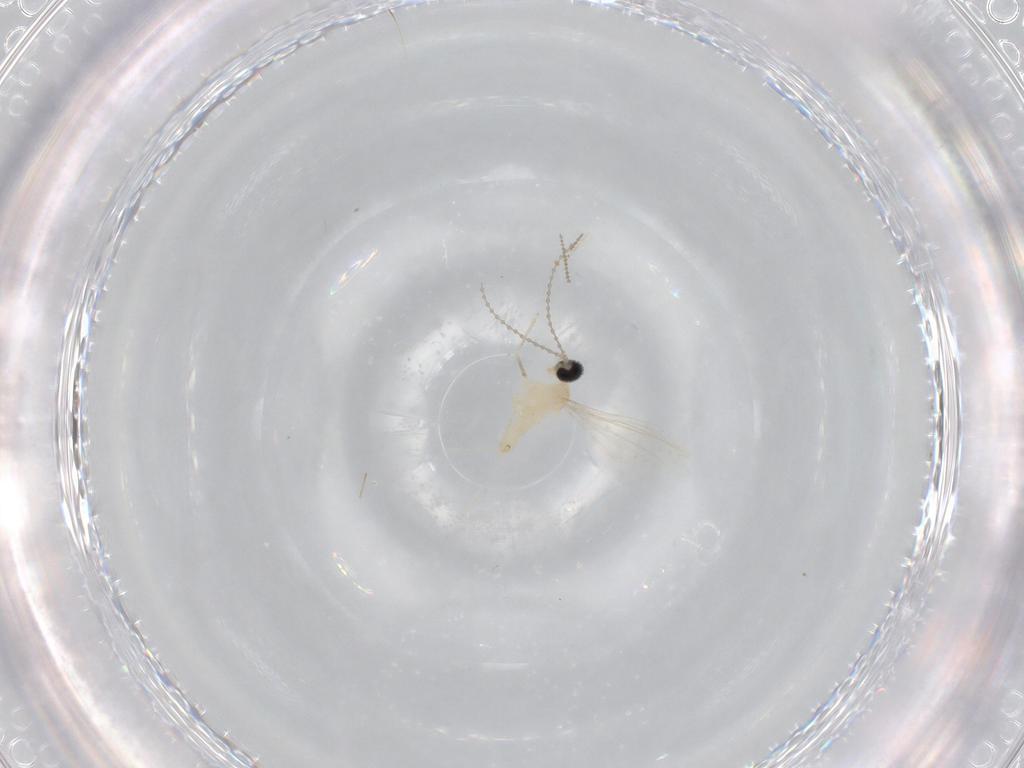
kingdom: Animalia
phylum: Arthropoda
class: Insecta
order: Diptera
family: Cecidomyiidae
